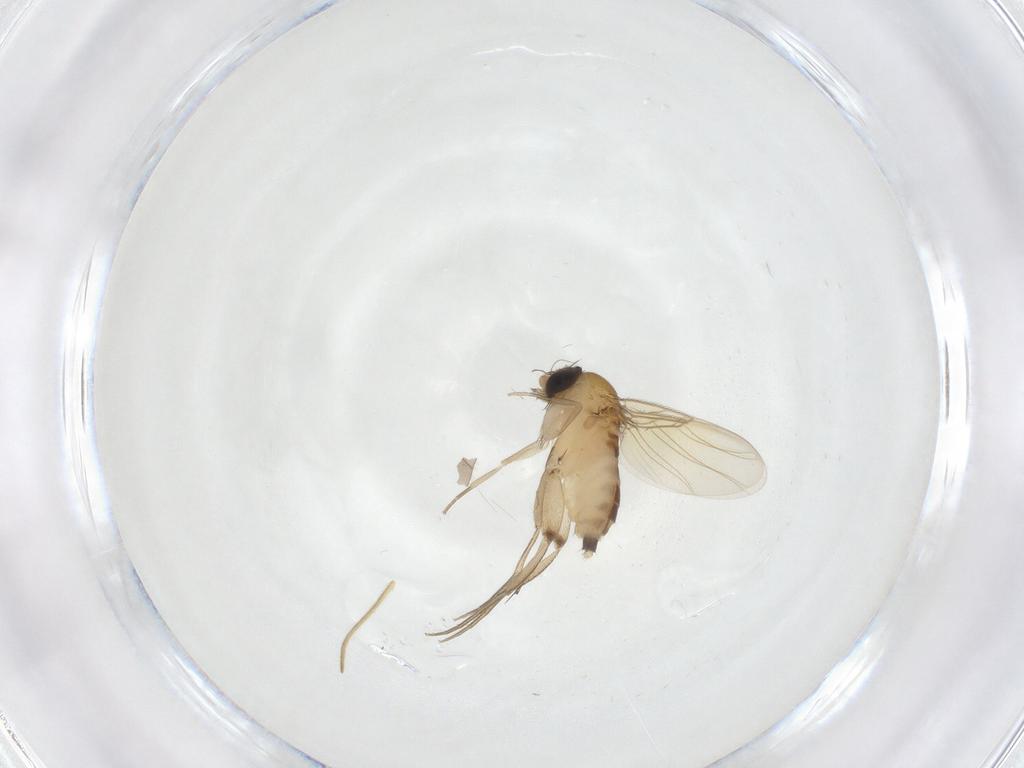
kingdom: Animalia
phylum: Arthropoda
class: Insecta
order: Diptera
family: Phoridae
